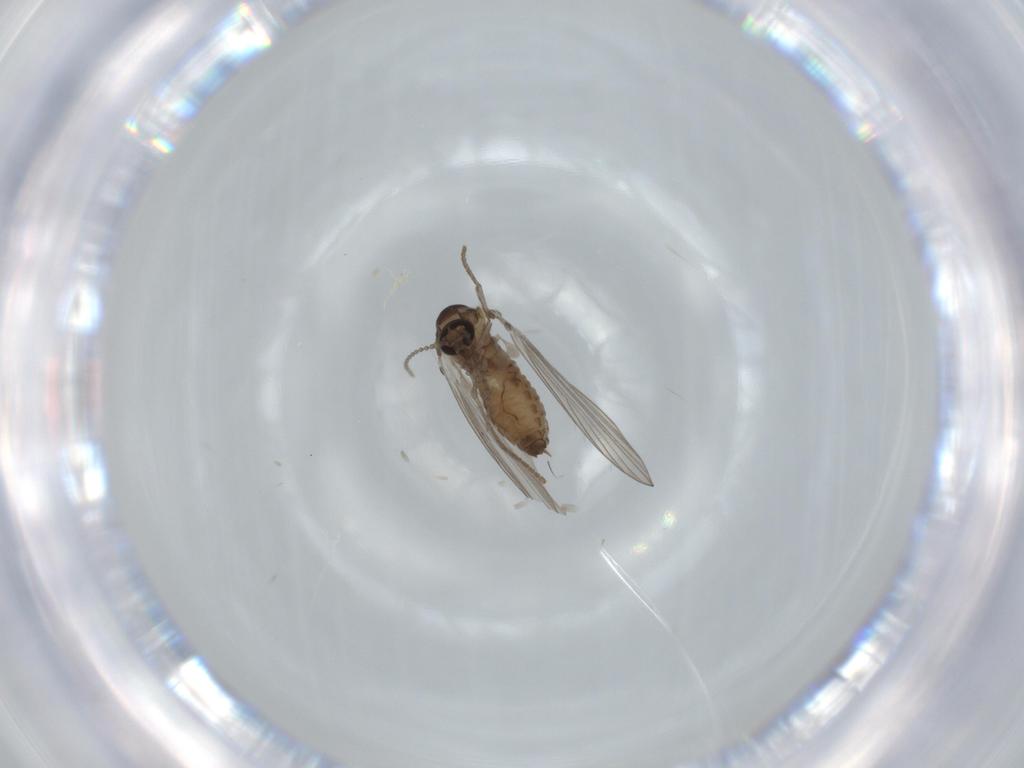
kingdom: Animalia
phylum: Arthropoda
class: Insecta
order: Diptera
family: Psychodidae
